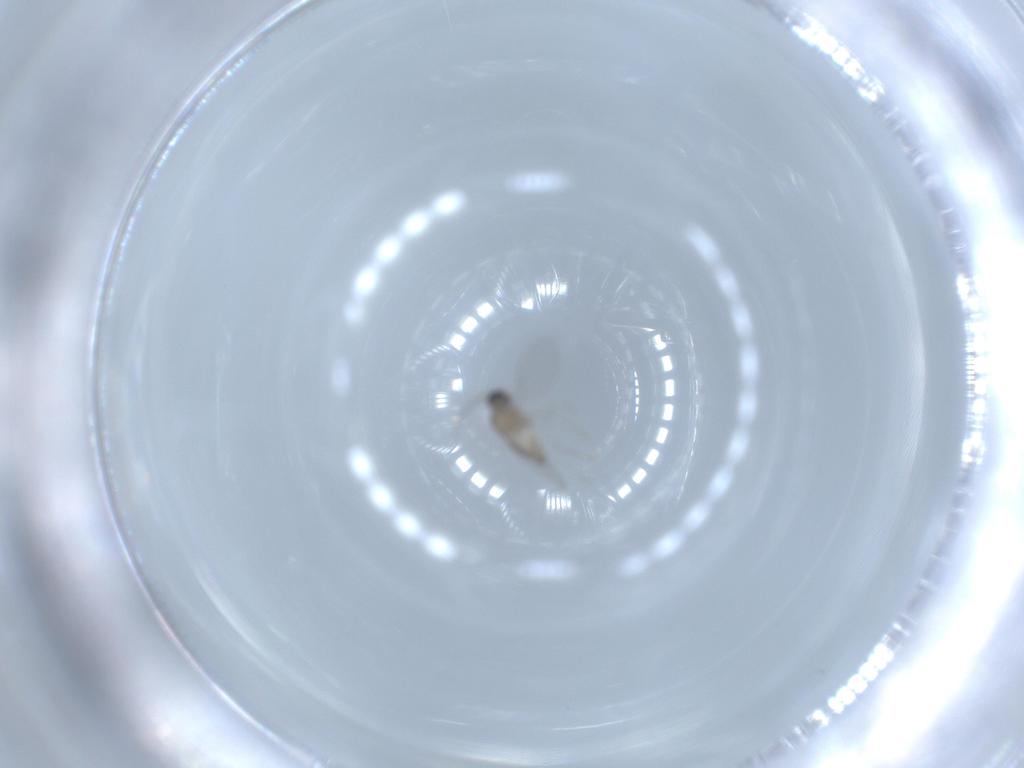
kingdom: Animalia
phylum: Arthropoda
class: Insecta
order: Diptera
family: Cecidomyiidae
